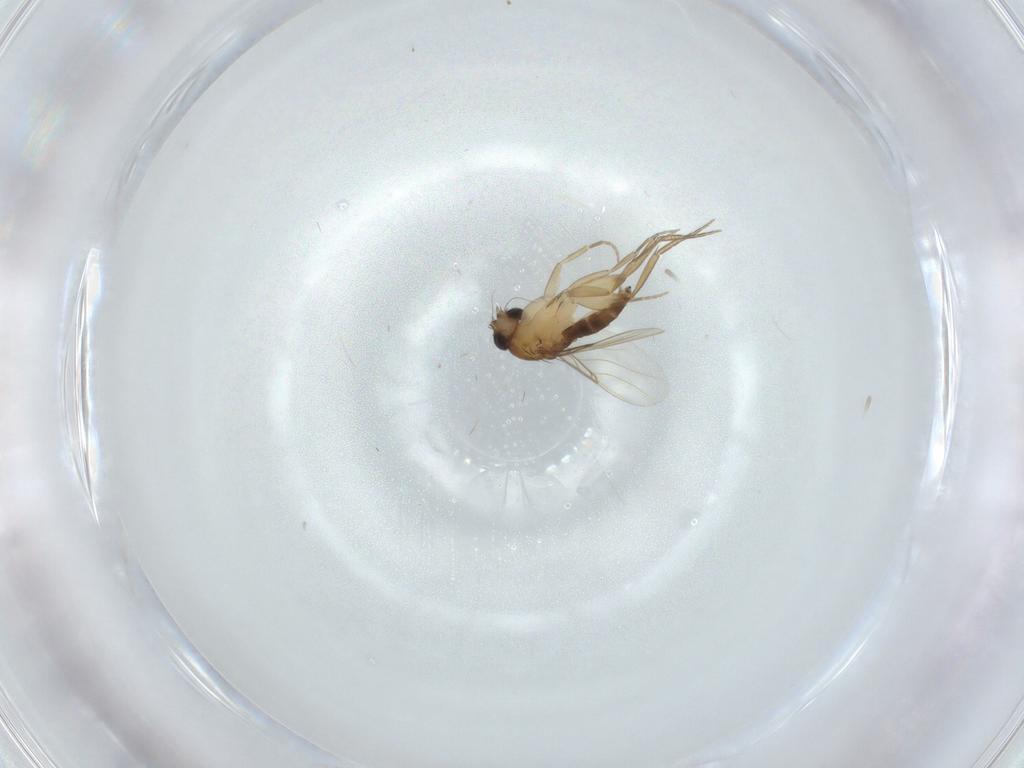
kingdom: Animalia
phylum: Arthropoda
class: Insecta
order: Diptera
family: Phoridae
